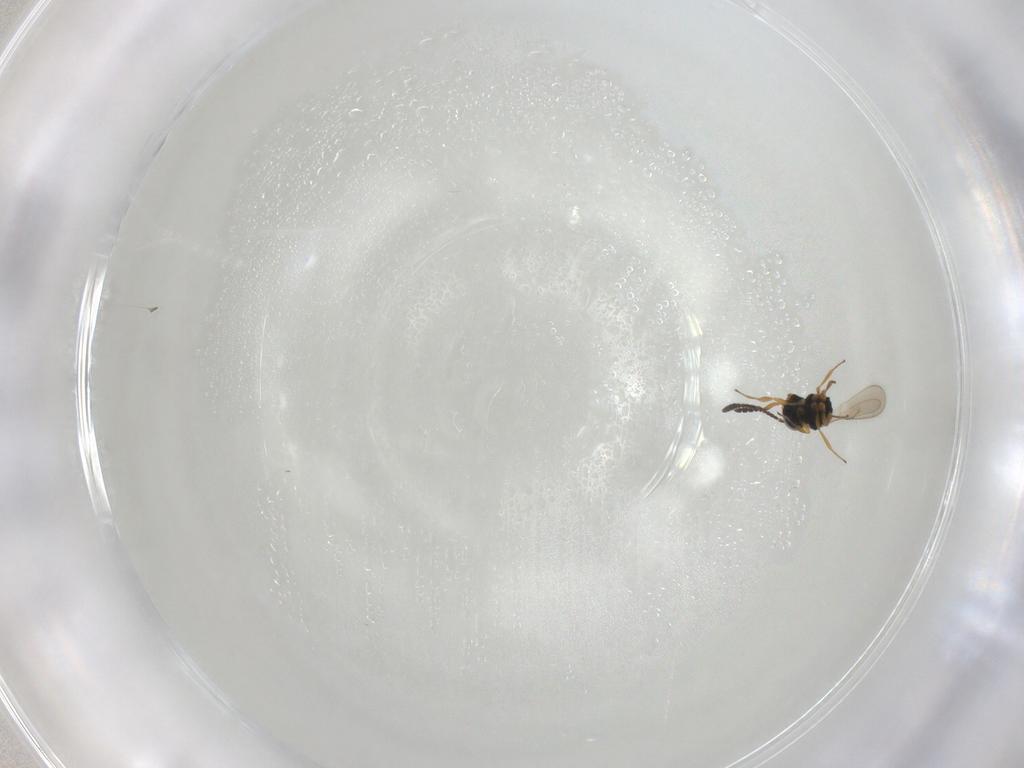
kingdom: Animalia
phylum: Arthropoda
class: Insecta
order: Hymenoptera
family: Scelionidae
